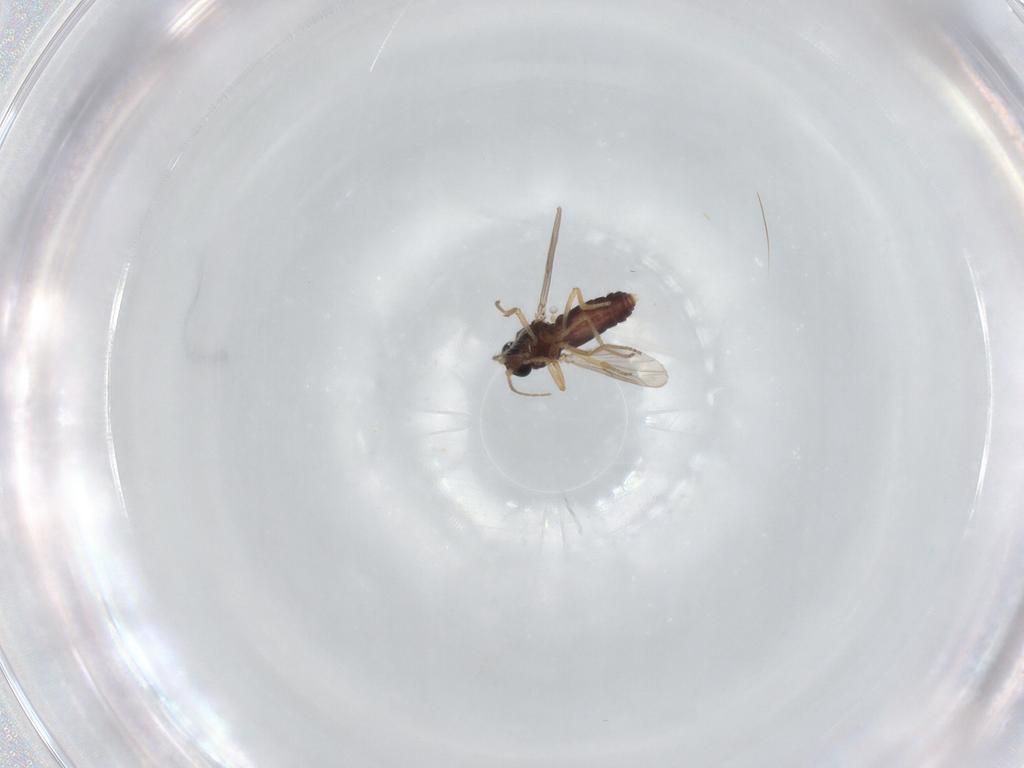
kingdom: Animalia
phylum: Arthropoda
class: Insecta
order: Diptera
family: Ceratopogonidae
